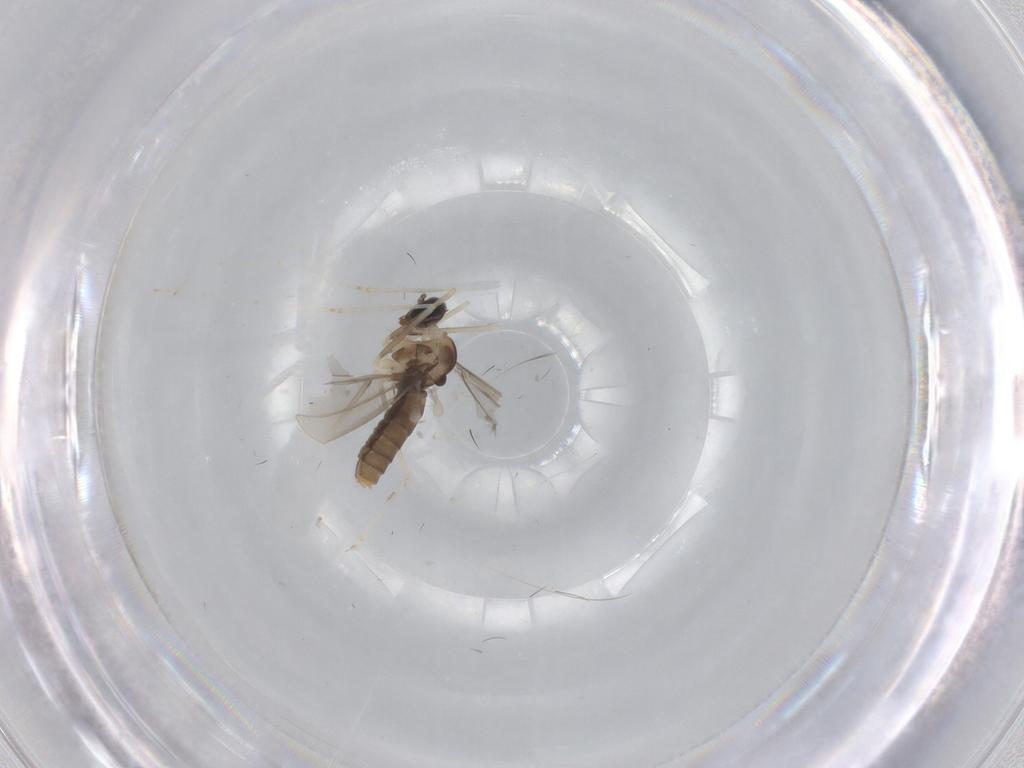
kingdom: Animalia
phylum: Arthropoda
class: Insecta
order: Diptera
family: Cecidomyiidae
